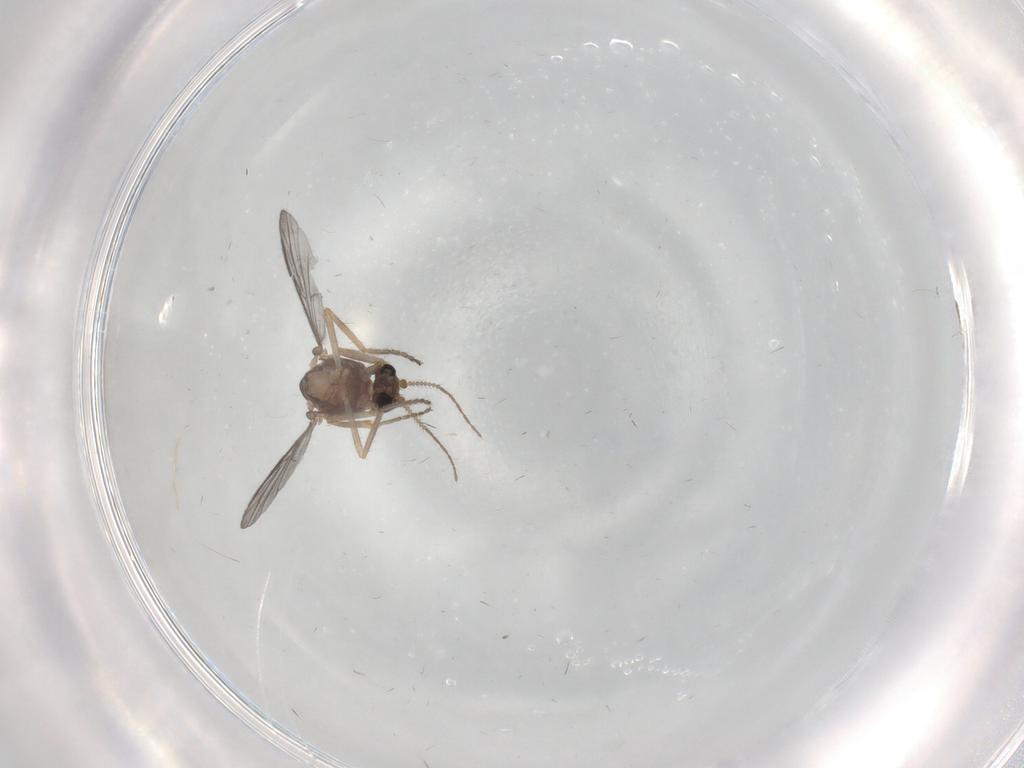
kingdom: Animalia
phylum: Arthropoda
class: Insecta
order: Diptera
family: Ceratopogonidae
